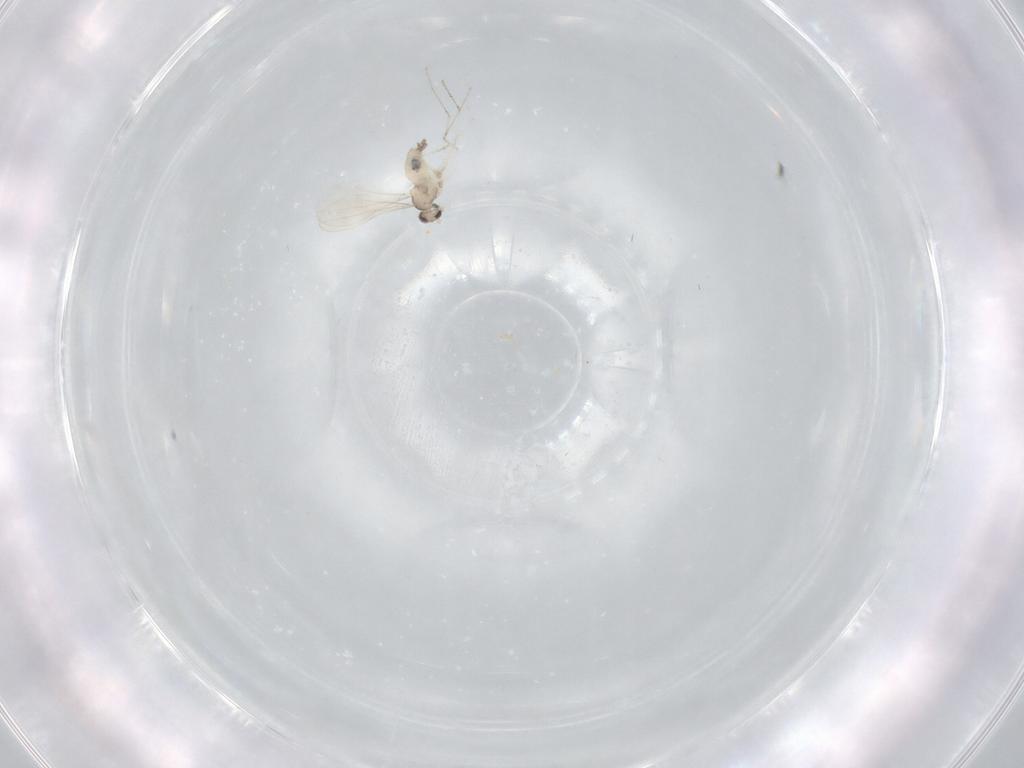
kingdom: Animalia
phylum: Arthropoda
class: Insecta
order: Diptera
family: Cecidomyiidae
